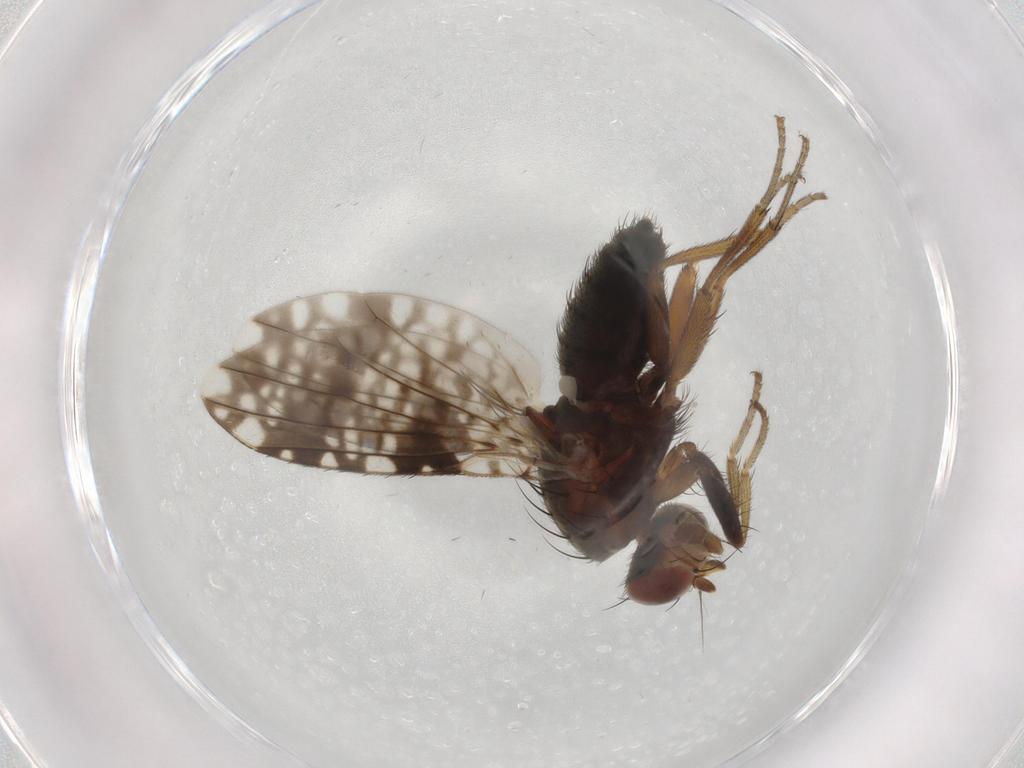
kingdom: Animalia
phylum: Arthropoda
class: Insecta
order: Diptera
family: Tephritidae
